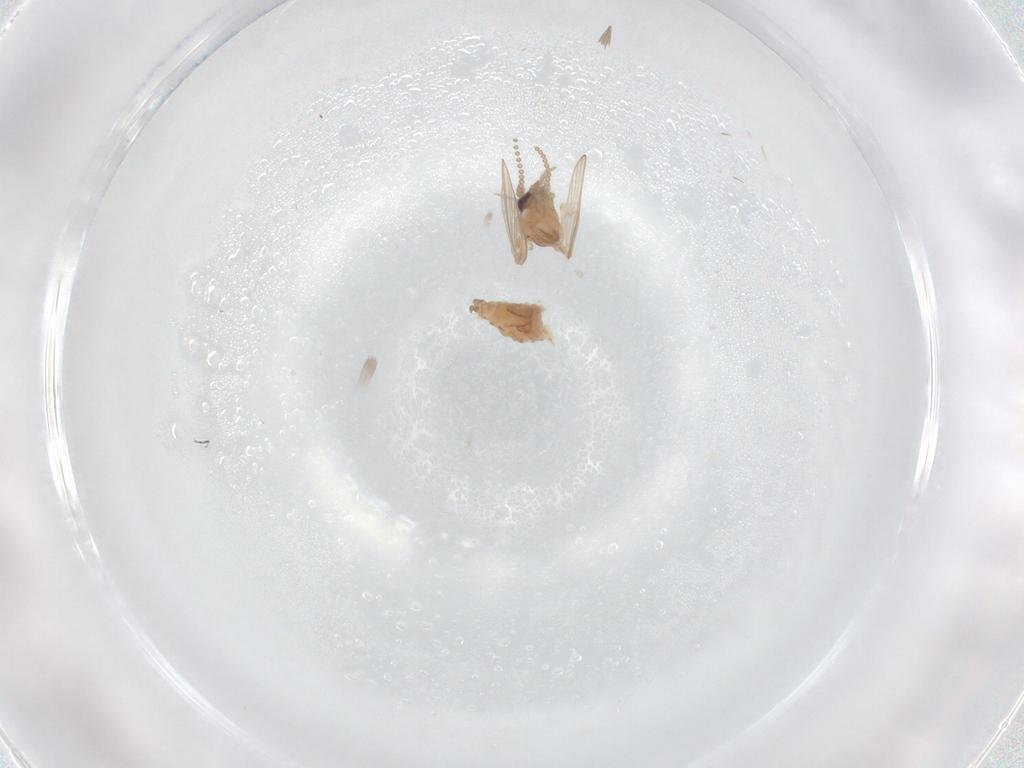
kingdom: Animalia
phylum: Arthropoda
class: Insecta
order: Diptera
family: Psychodidae
